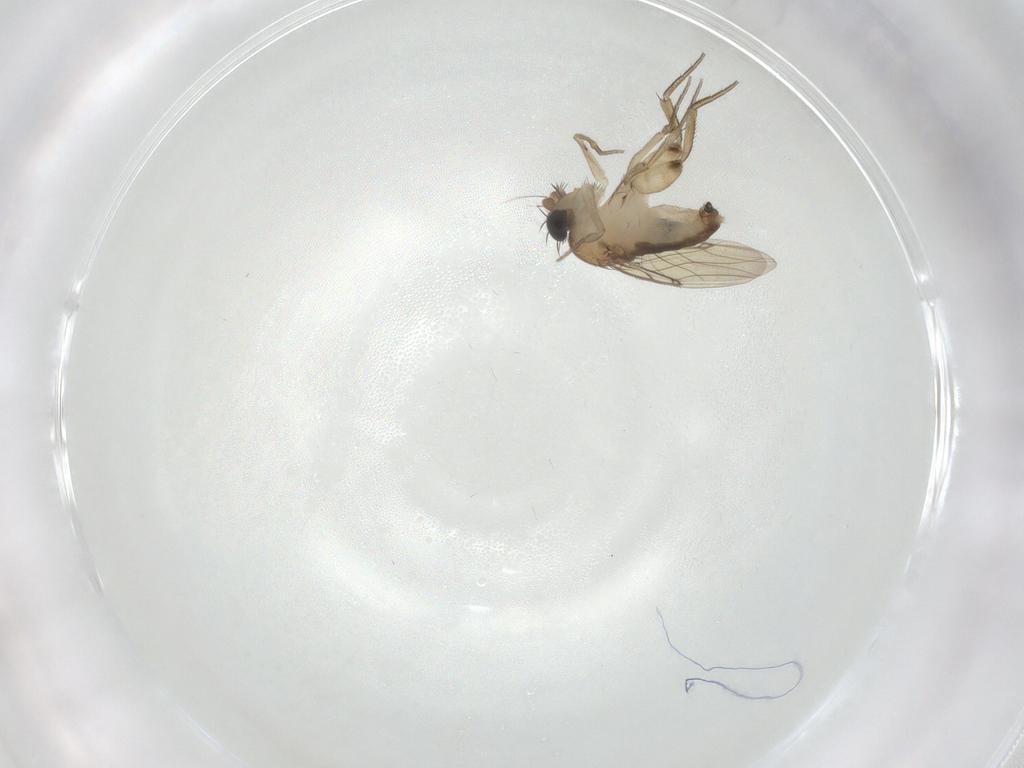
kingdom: Animalia
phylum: Arthropoda
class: Insecta
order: Diptera
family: Phoridae
